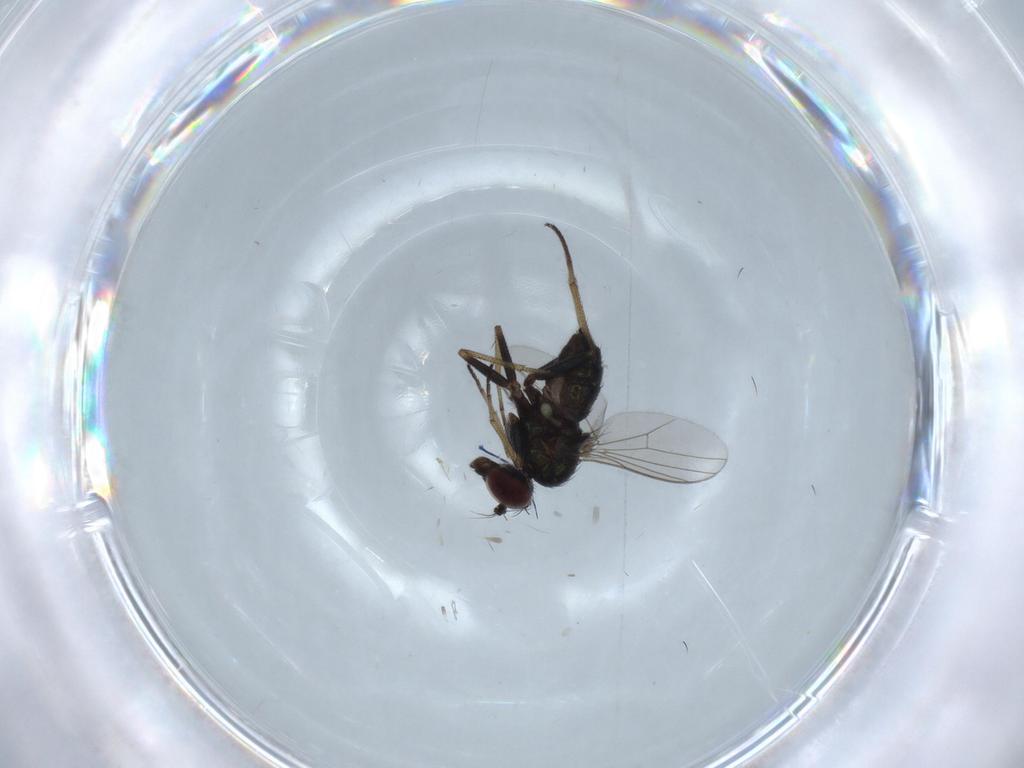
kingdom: Animalia
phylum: Arthropoda
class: Insecta
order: Diptera
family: Dolichopodidae
